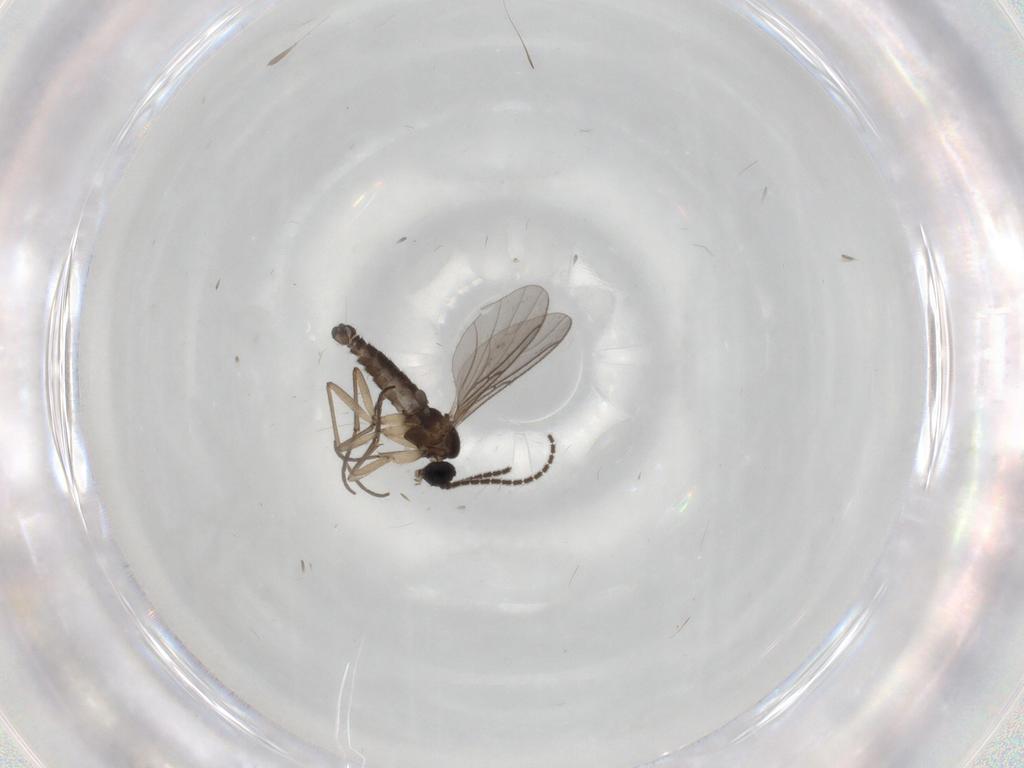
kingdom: Animalia
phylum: Arthropoda
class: Insecta
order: Diptera
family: Sciaridae
